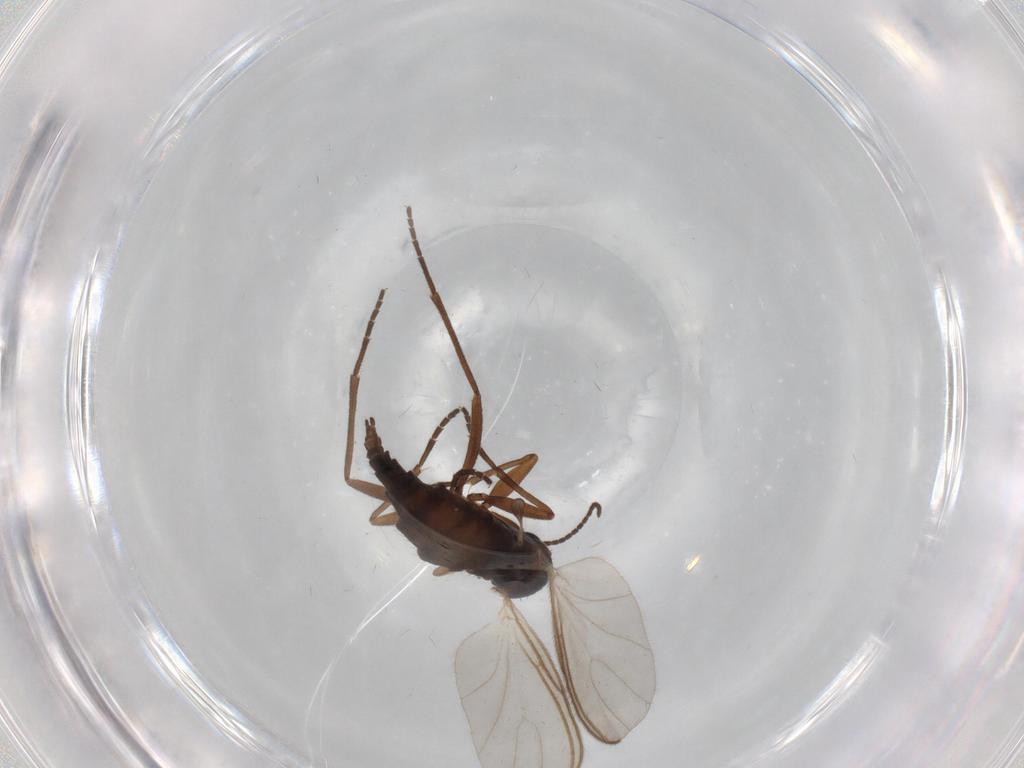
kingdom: Animalia
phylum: Arthropoda
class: Insecta
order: Diptera
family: Sciaridae
